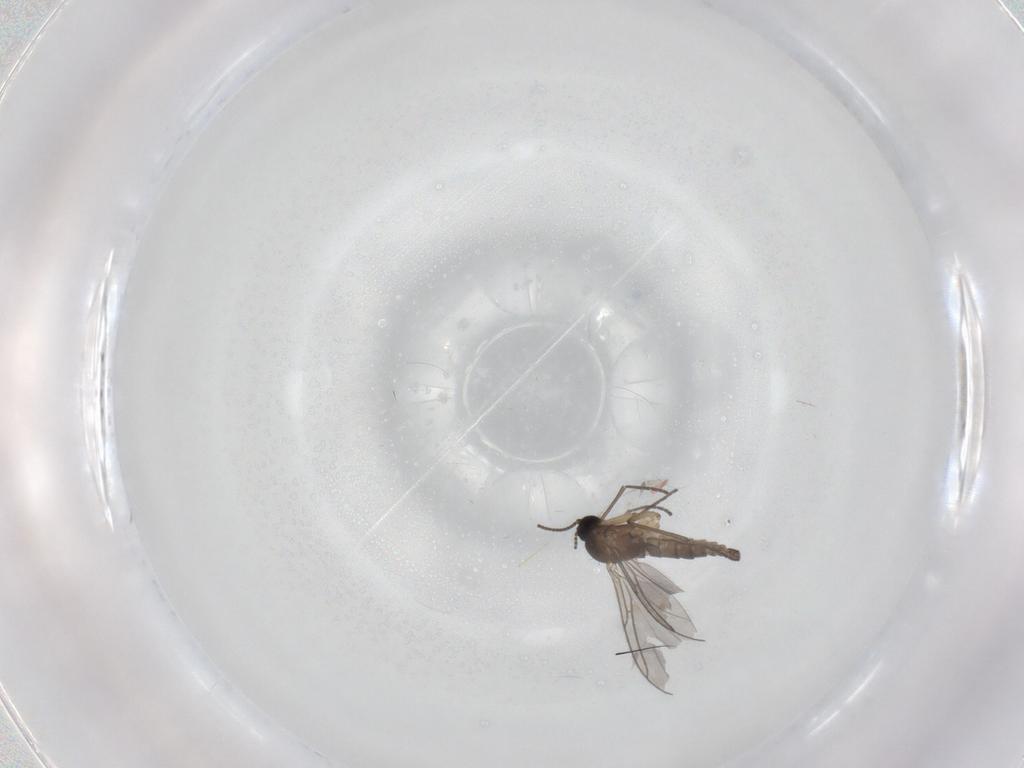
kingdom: Animalia
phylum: Arthropoda
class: Insecta
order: Diptera
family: Sciaridae
